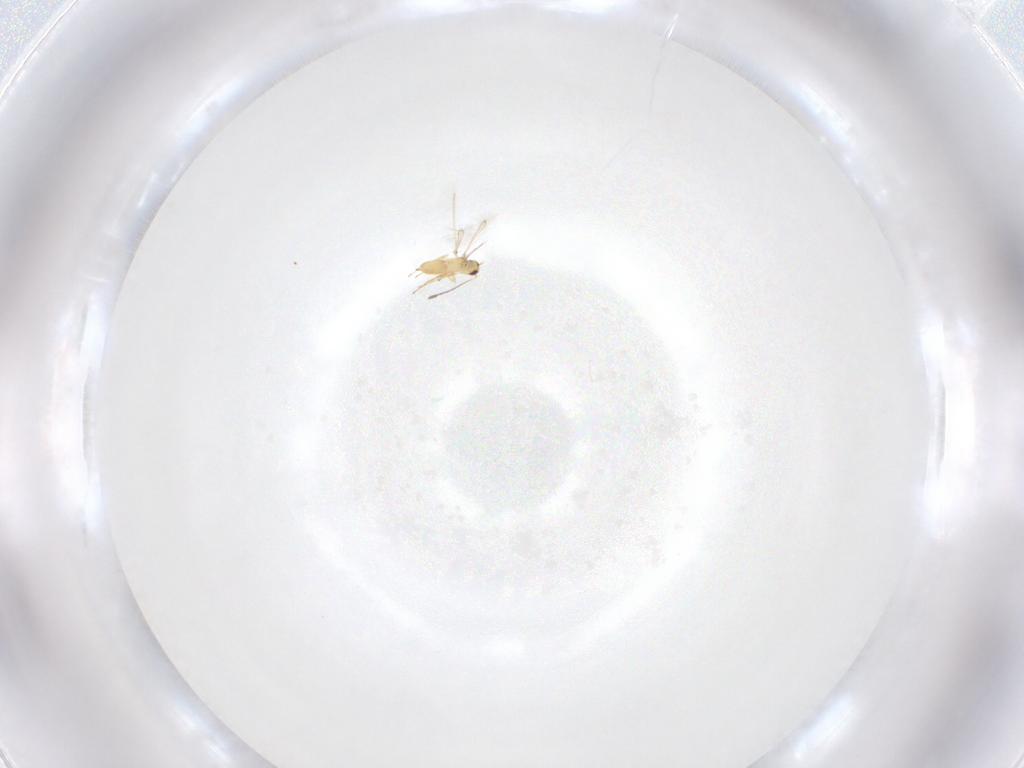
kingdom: Animalia
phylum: Arthropoda
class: Insecta
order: Hymenoptera
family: Mymaridae
